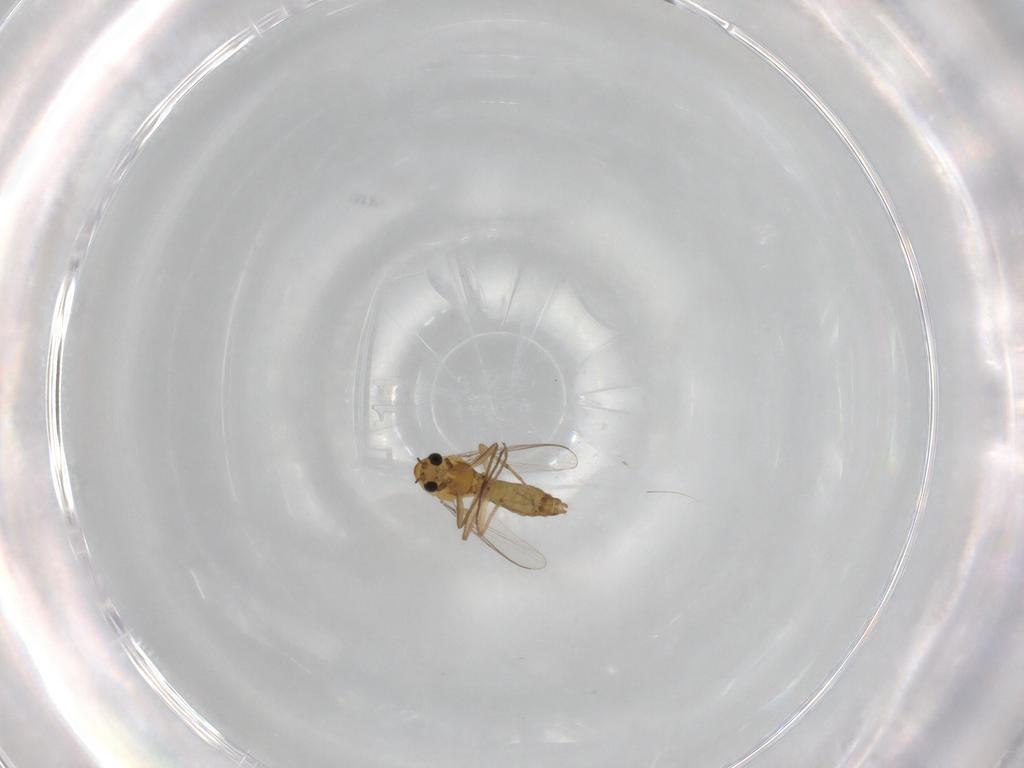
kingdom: Animalia
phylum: Arthropoda
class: Insecta
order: Diptera
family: Chironomidae
